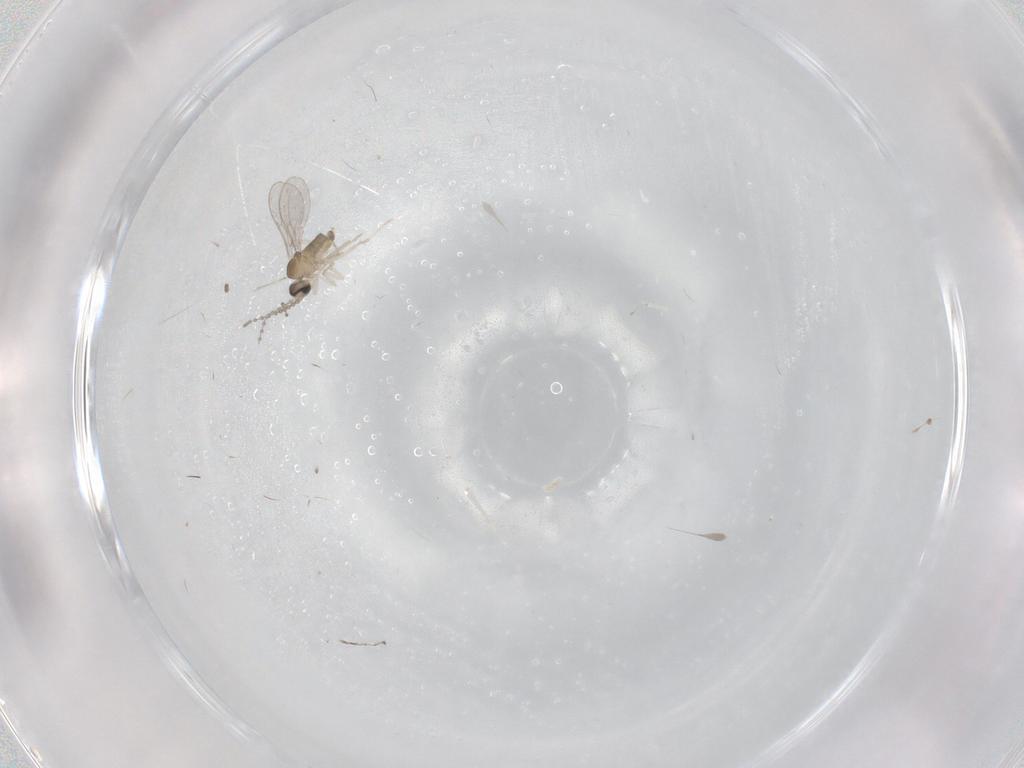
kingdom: Animalia
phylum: Arthropoda
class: Insecta
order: Diptera
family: Cecidomyiidae
